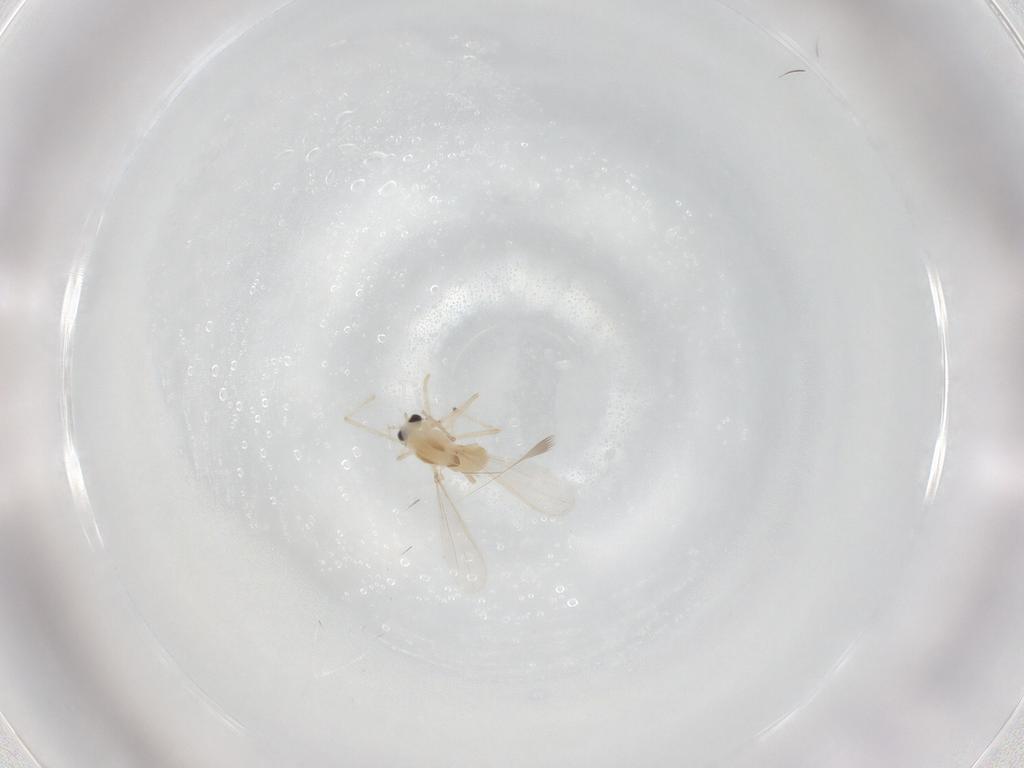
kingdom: Animalia
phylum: Arthropoda
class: Insecta
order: Diptera
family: Chironomidae
